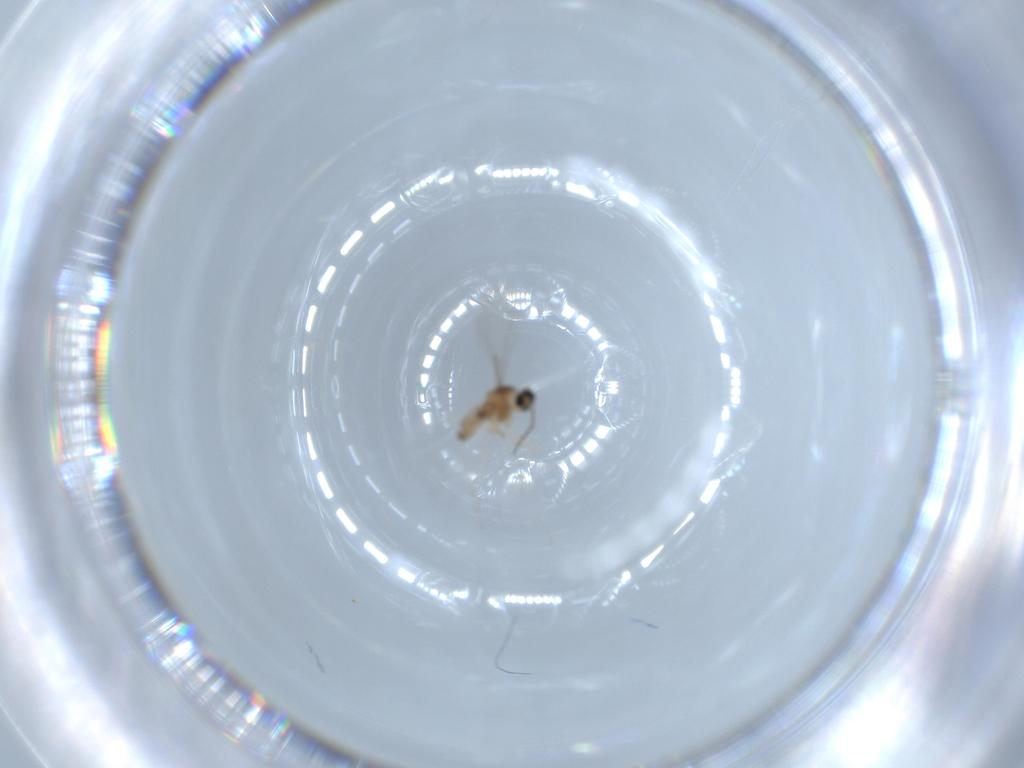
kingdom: Animalia
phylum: Arthropoda
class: Insecta
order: Diptera
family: Cecidomyiidae
